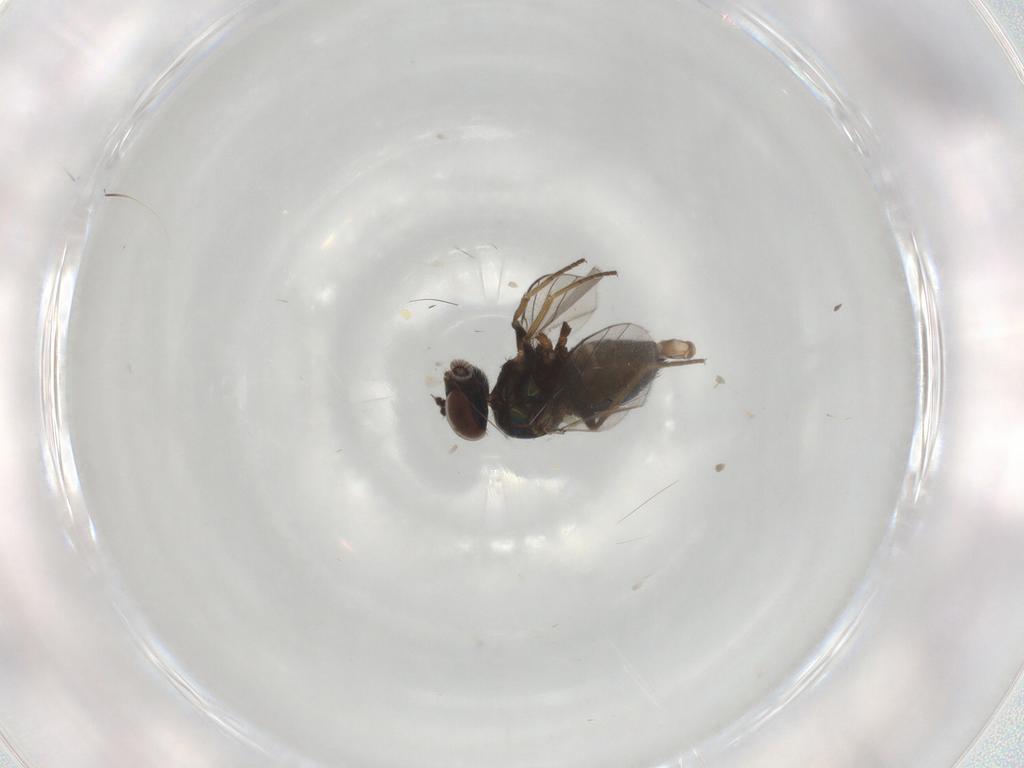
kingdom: Animalia
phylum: Arthropoda
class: Insecta
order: Diptera
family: Dolichopodidae
